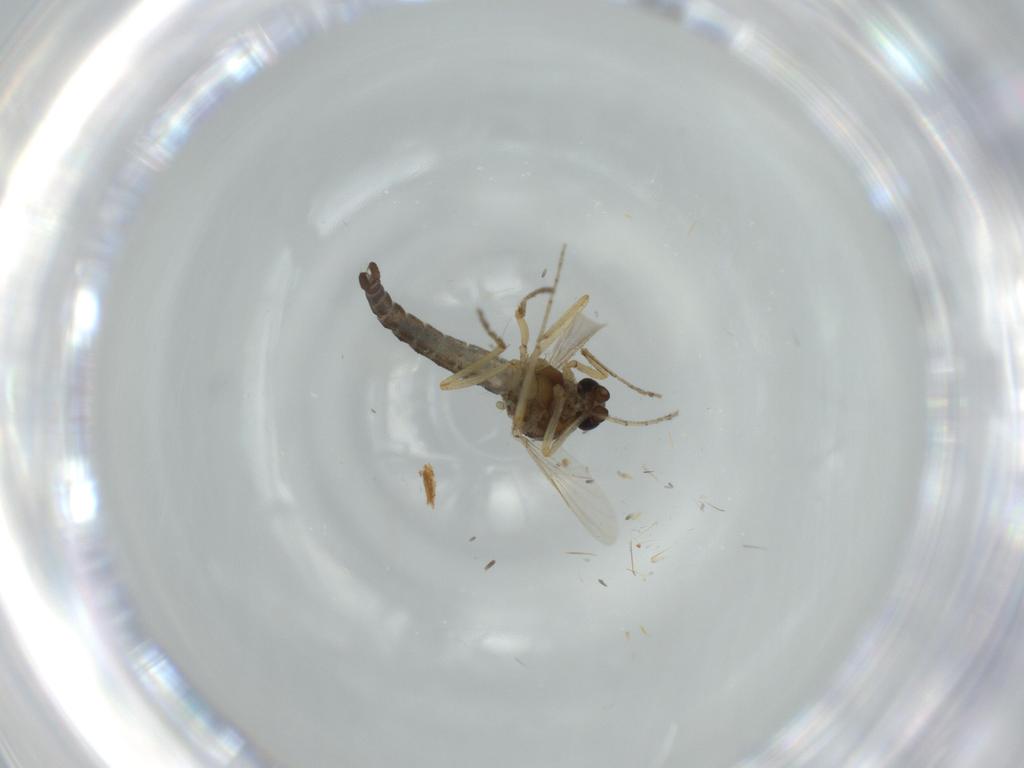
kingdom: Animalia
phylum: Arthropoda
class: Insecta
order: Diptera
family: Ceratopogonidae
